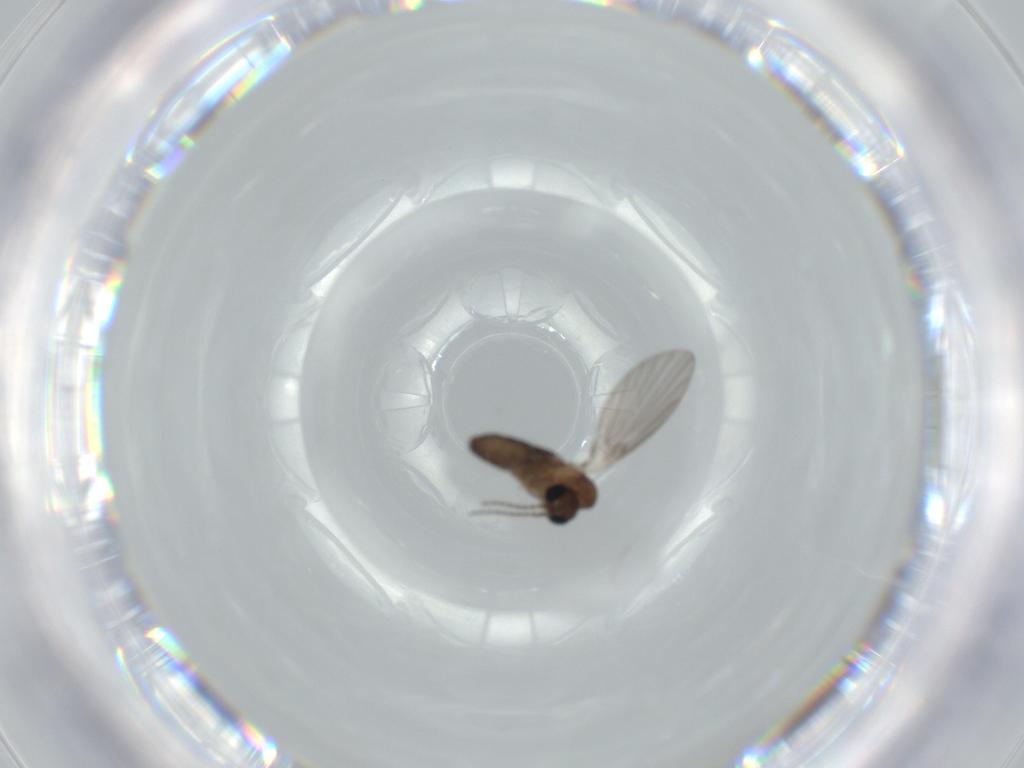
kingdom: Animalia
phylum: Arthropoda
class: Insecta
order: Diptera
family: Psychodidae
